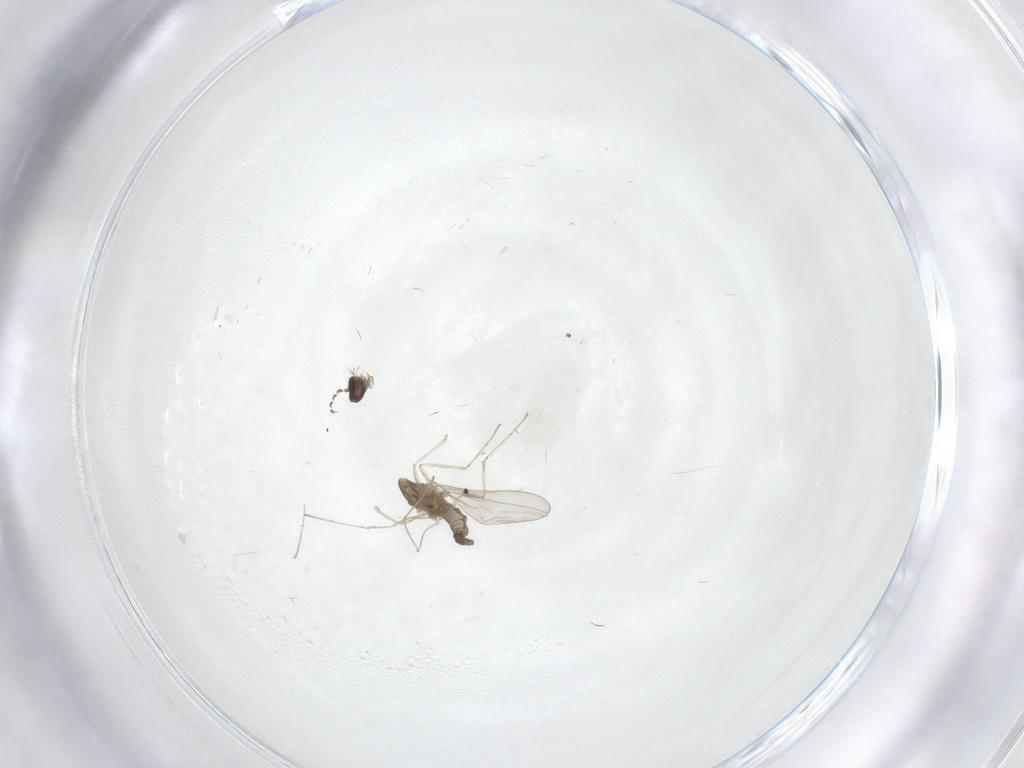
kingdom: Animalia
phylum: Arthropoda
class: Insecta
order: Diptera
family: Cecidomyiidae
